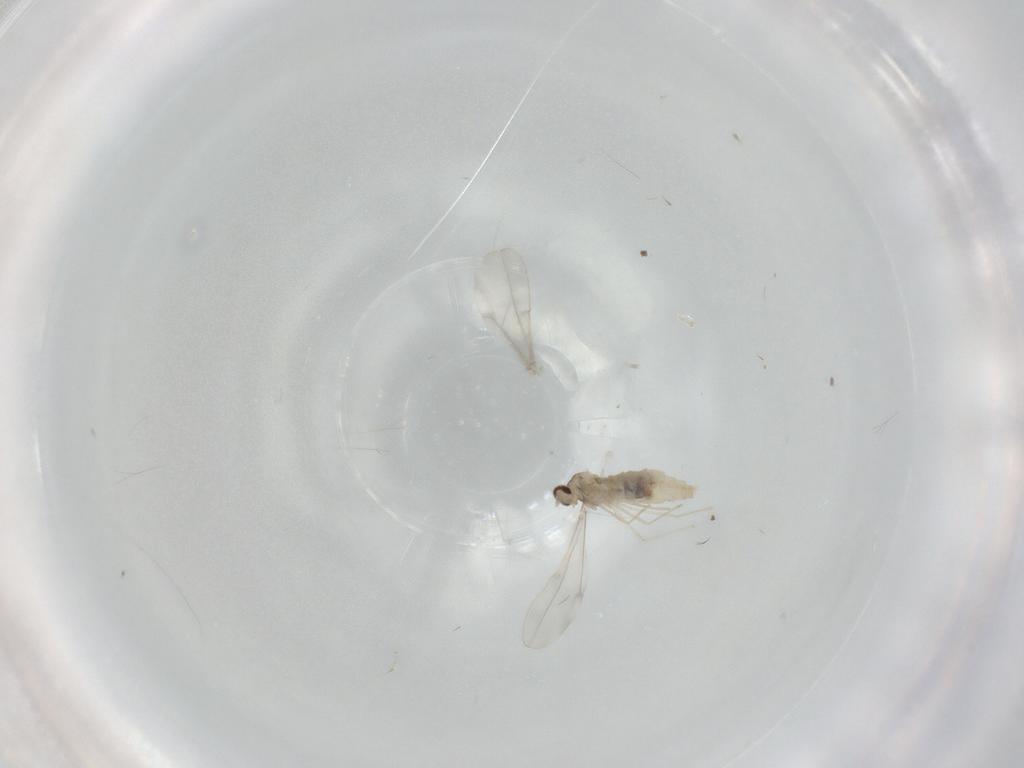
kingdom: Animalia
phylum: Arthropoda
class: Insecta
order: Diptera
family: Cecidomyiidae
